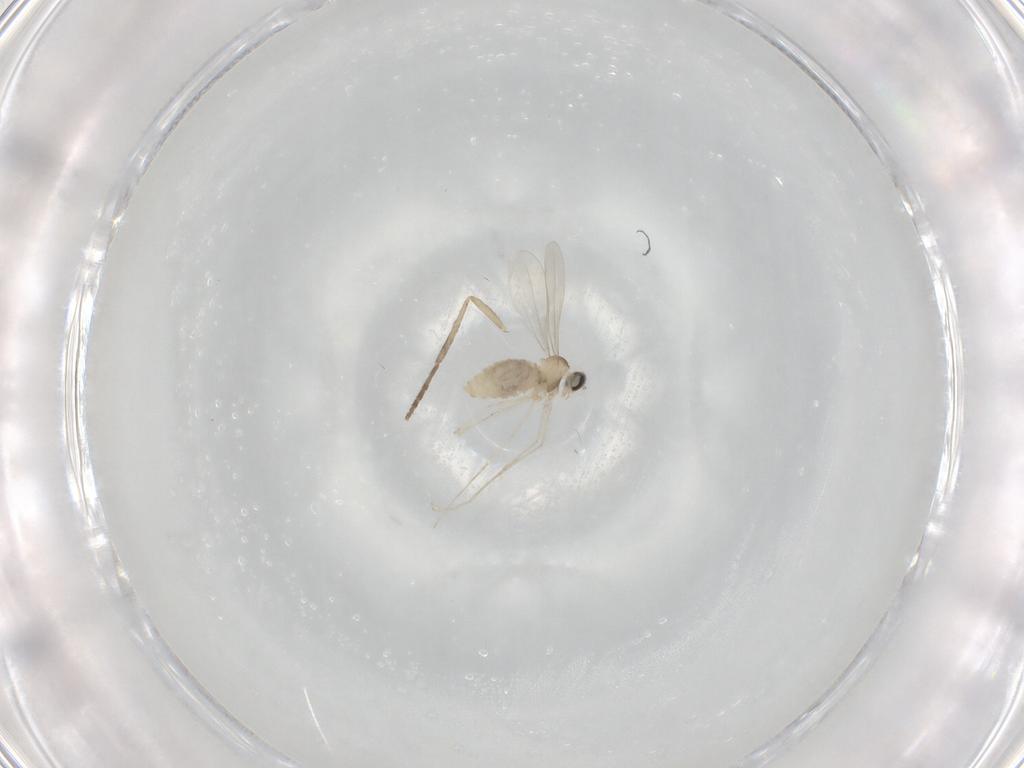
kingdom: Animalia
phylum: Arthropoda
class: Insecta
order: Diptera
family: Cecidomyiidae
